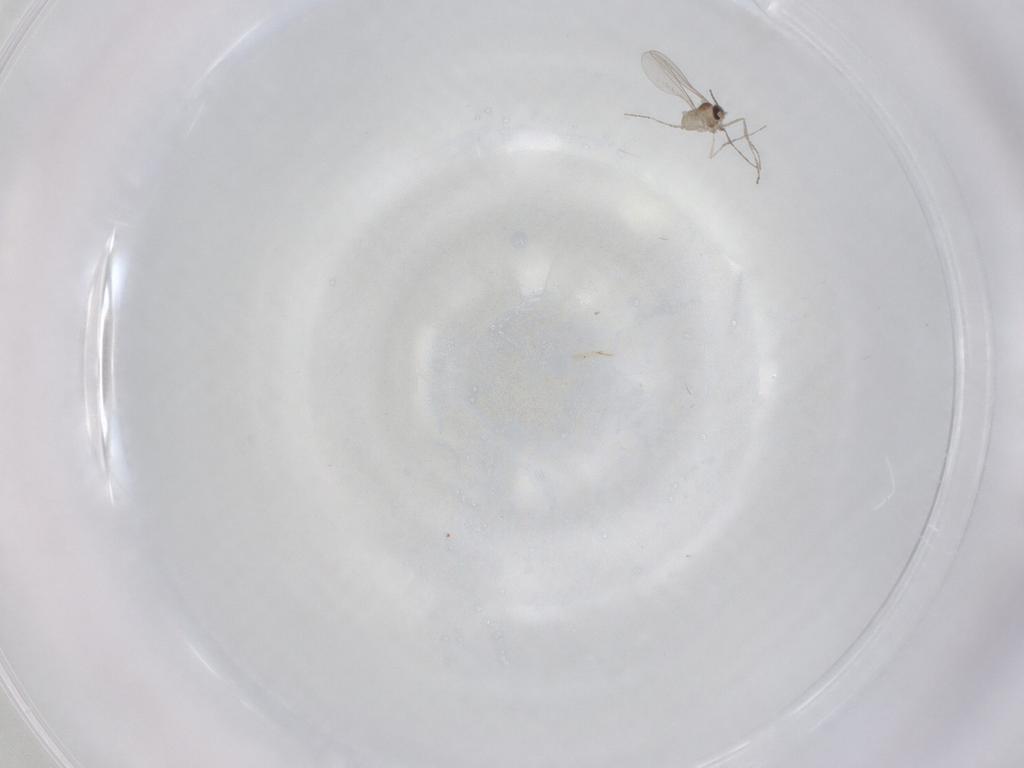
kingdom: Animalia
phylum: Arthropoda
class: Insecta
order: Diptera
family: Cecidomyiidae
